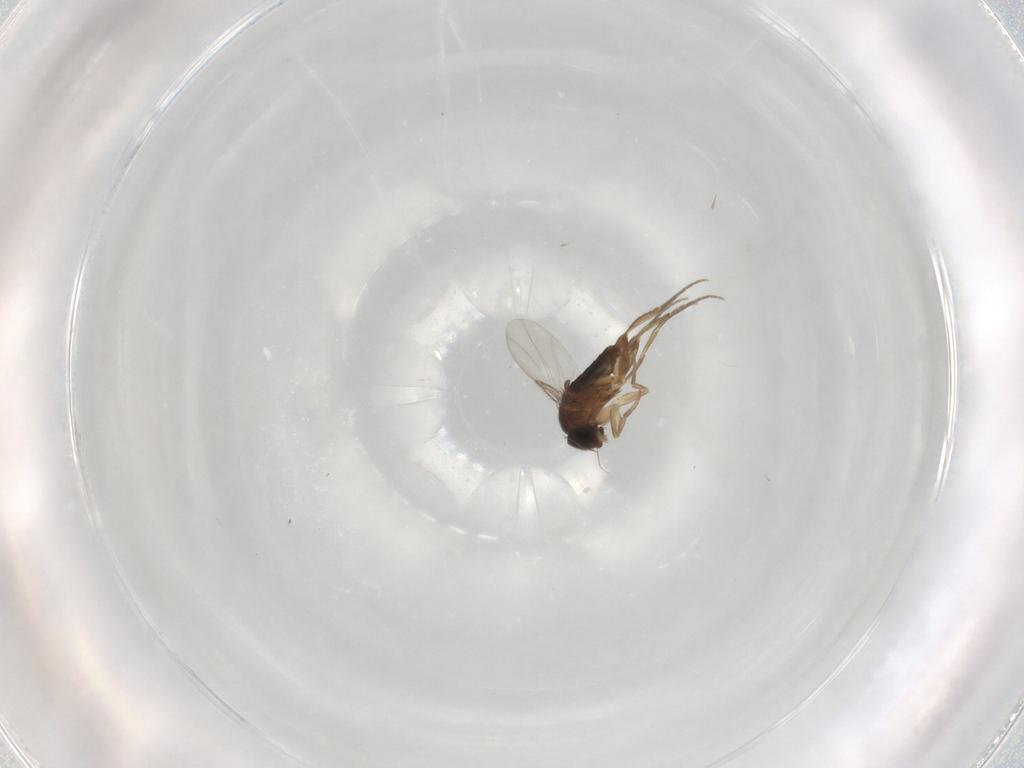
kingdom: Animalia
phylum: Arthropoda
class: Insecta
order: Diptera
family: Phoridae
